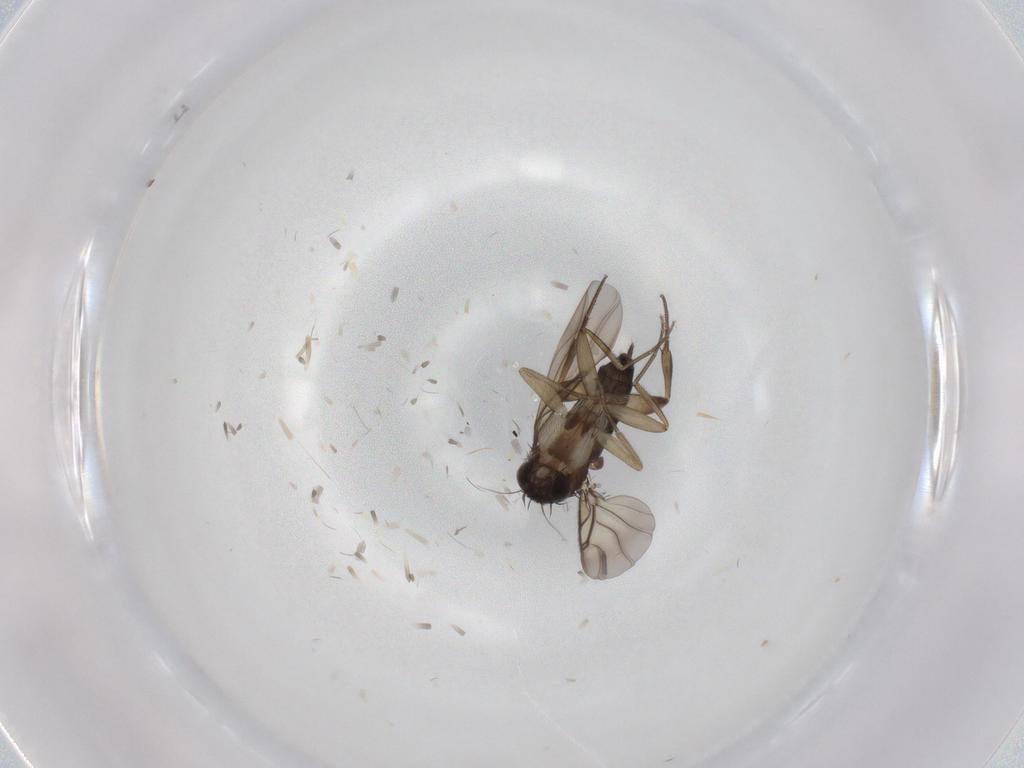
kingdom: Animalia
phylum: Arthropoda
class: Insecta
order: Diptera
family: Phoridae
